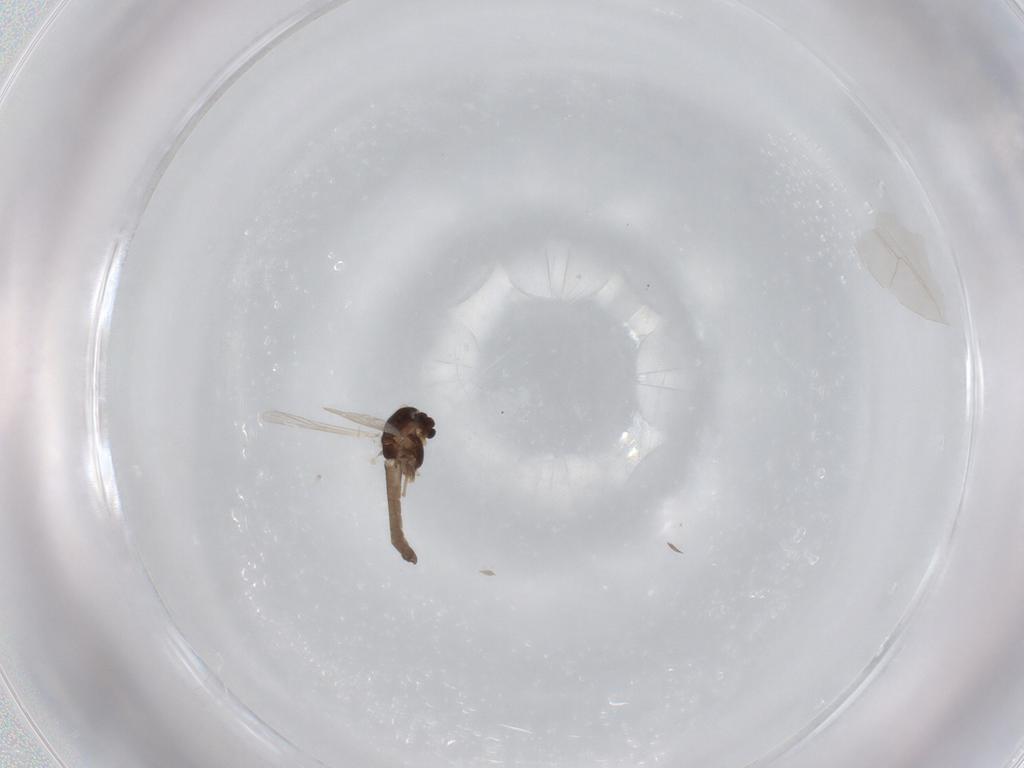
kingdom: Animalia
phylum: Arthropoda
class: Insecta
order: Diptera
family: Chironomidae
